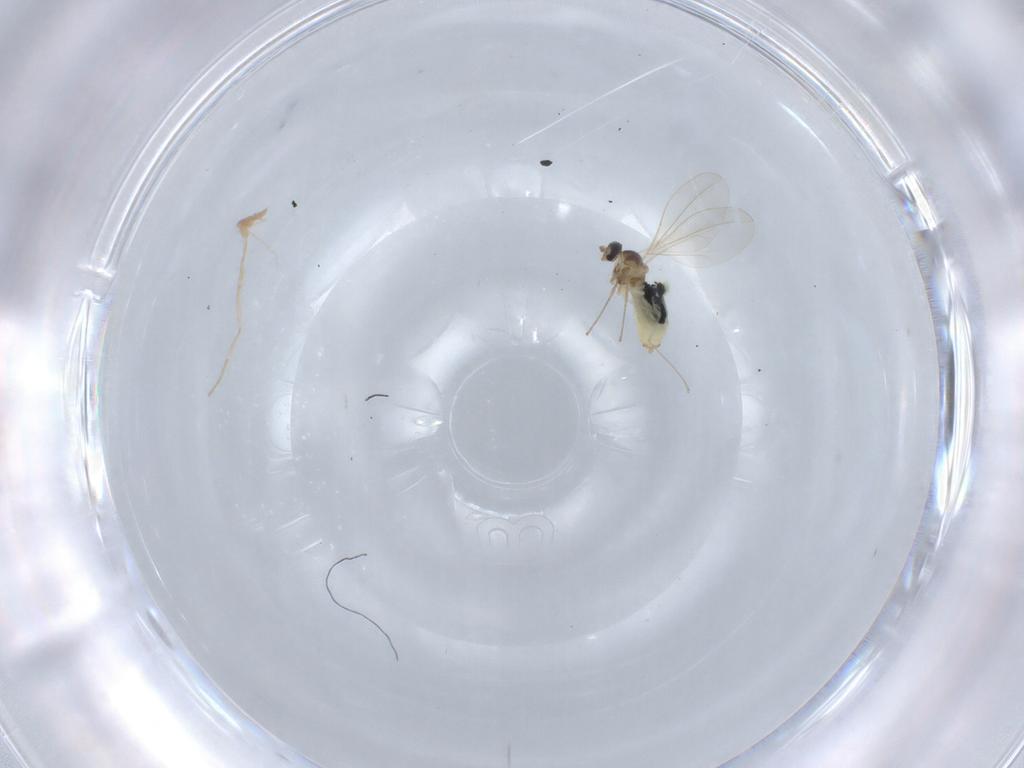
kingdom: Animalia
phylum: Arthropoda
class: Insecta
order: Diptera
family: Cecidomyiidae
